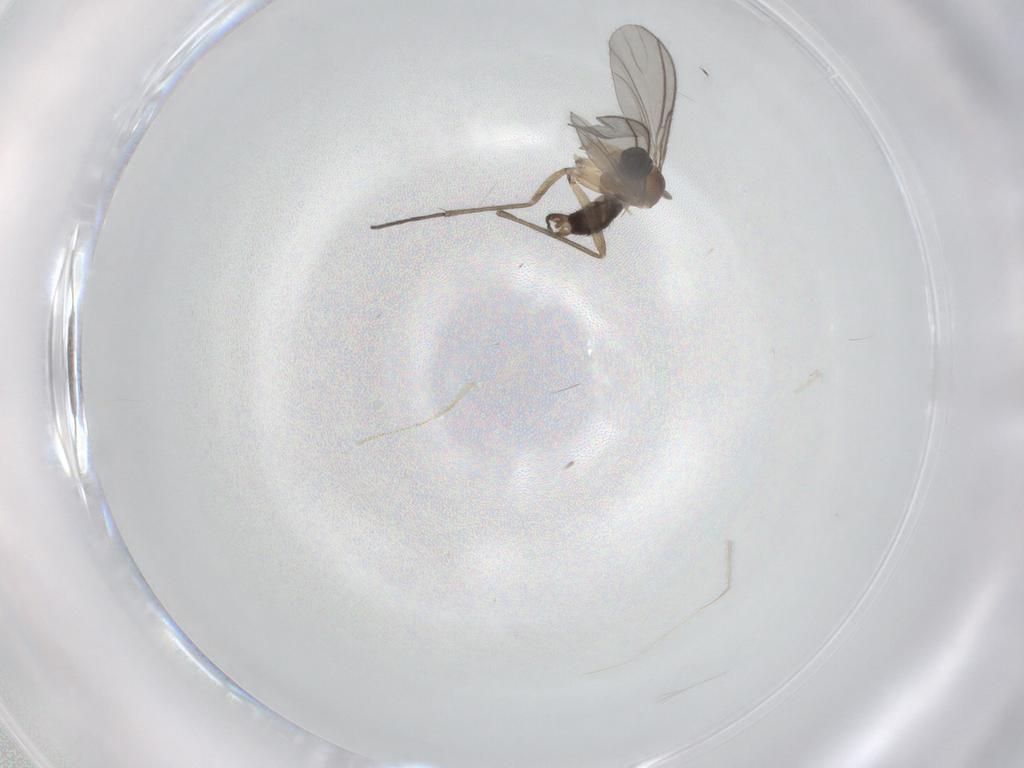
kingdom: Animalia
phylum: Arthropoda
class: Insecta
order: Diptera
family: Sciaridae
